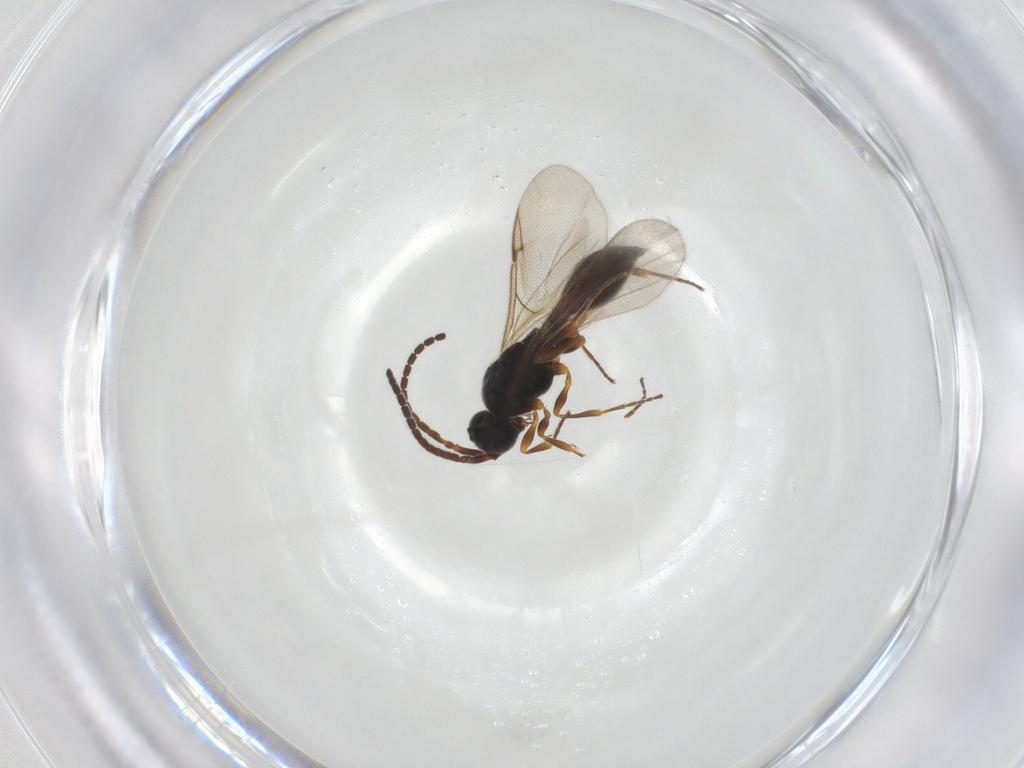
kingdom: Animalia
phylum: Arthropoda
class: Insecta
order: Hymenoptera
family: Diapriidae
